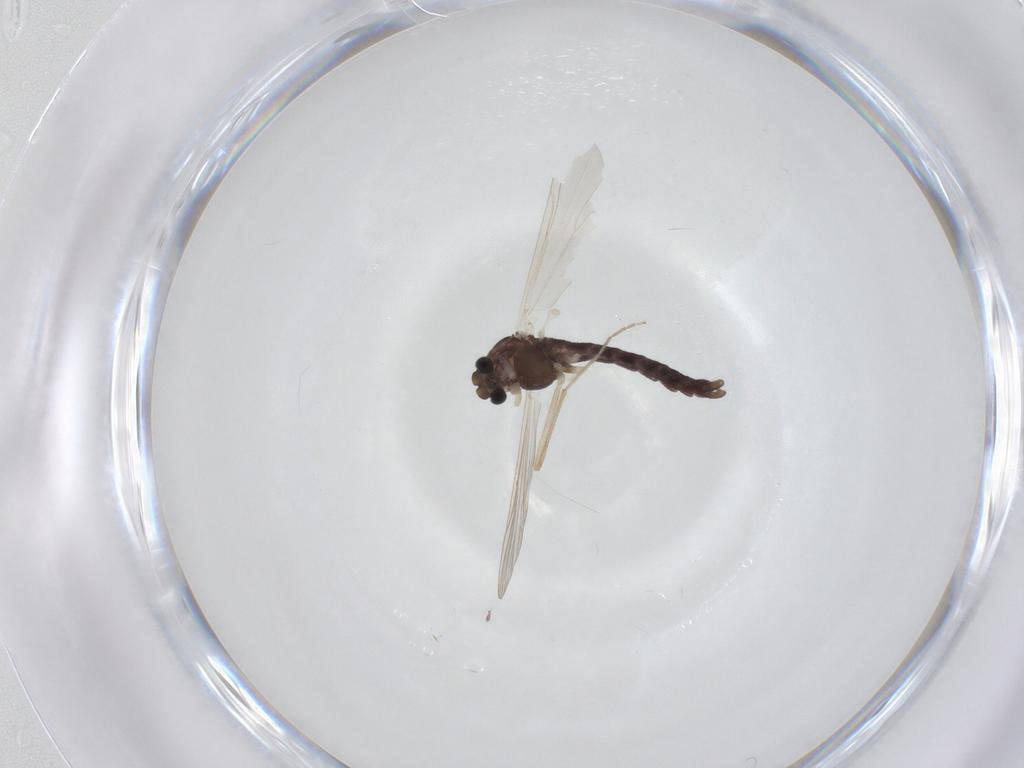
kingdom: Animalia
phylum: Arthropoda
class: Insecta
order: Diptera
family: Chironomidae
